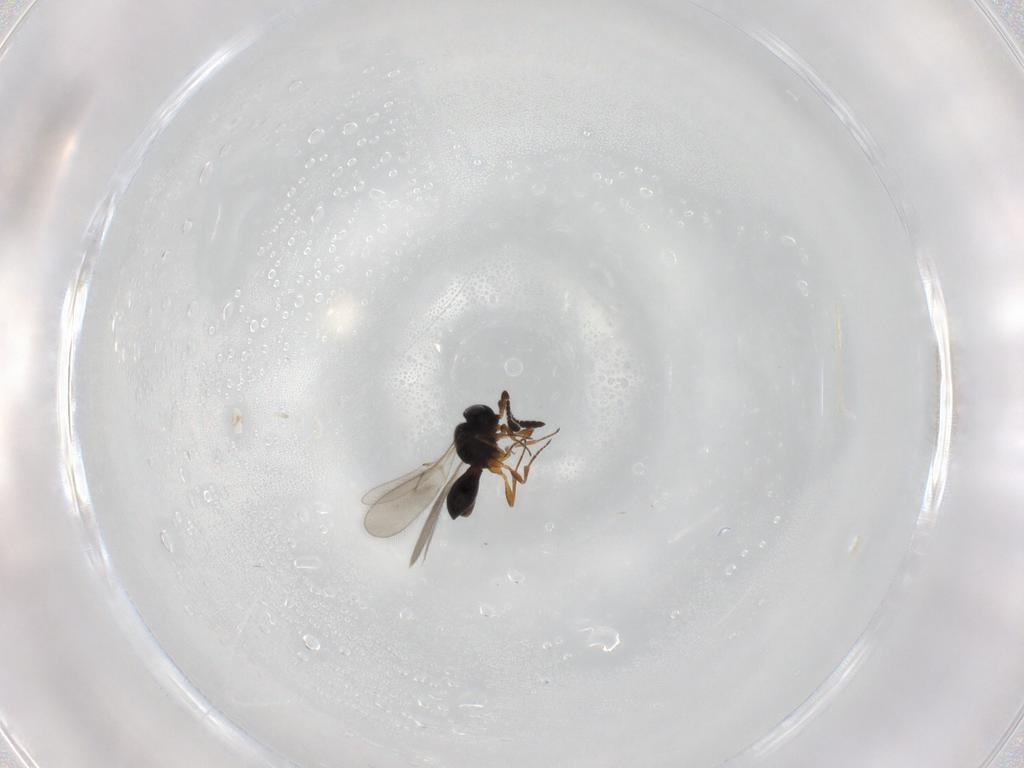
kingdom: Animalia
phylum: Arthropoda
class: Insecta
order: Hymenoptera
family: Scelionidae
